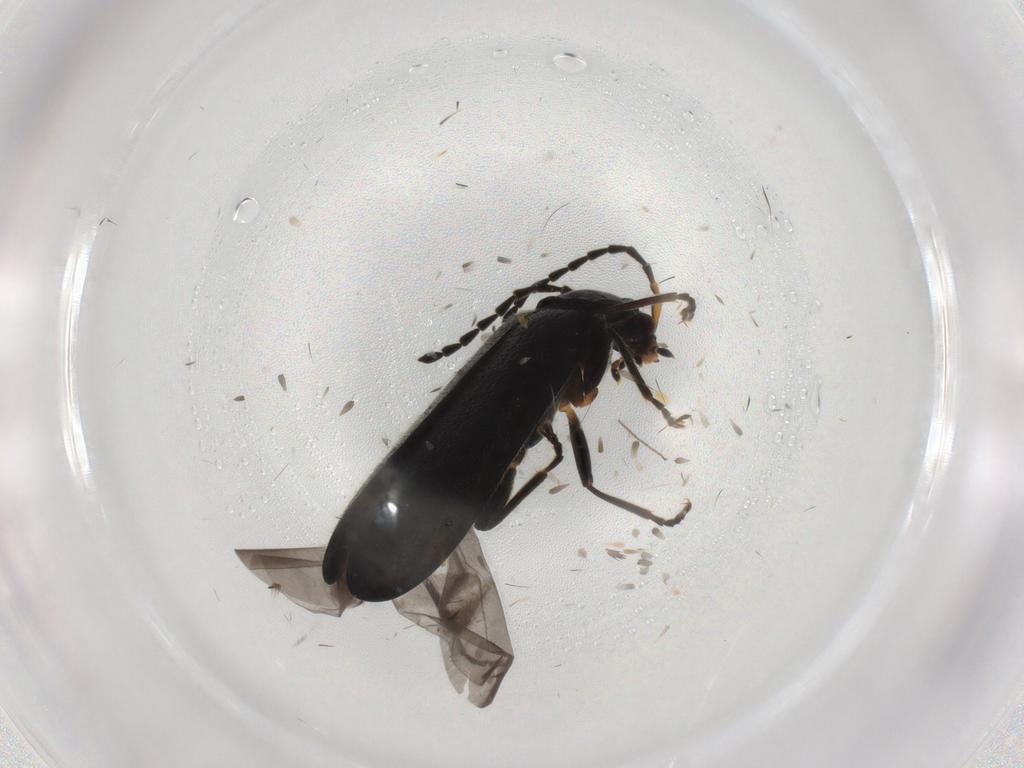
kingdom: Animalia
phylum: Arthropoda
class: Insecta
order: Coleoptera
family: Cantharidae
